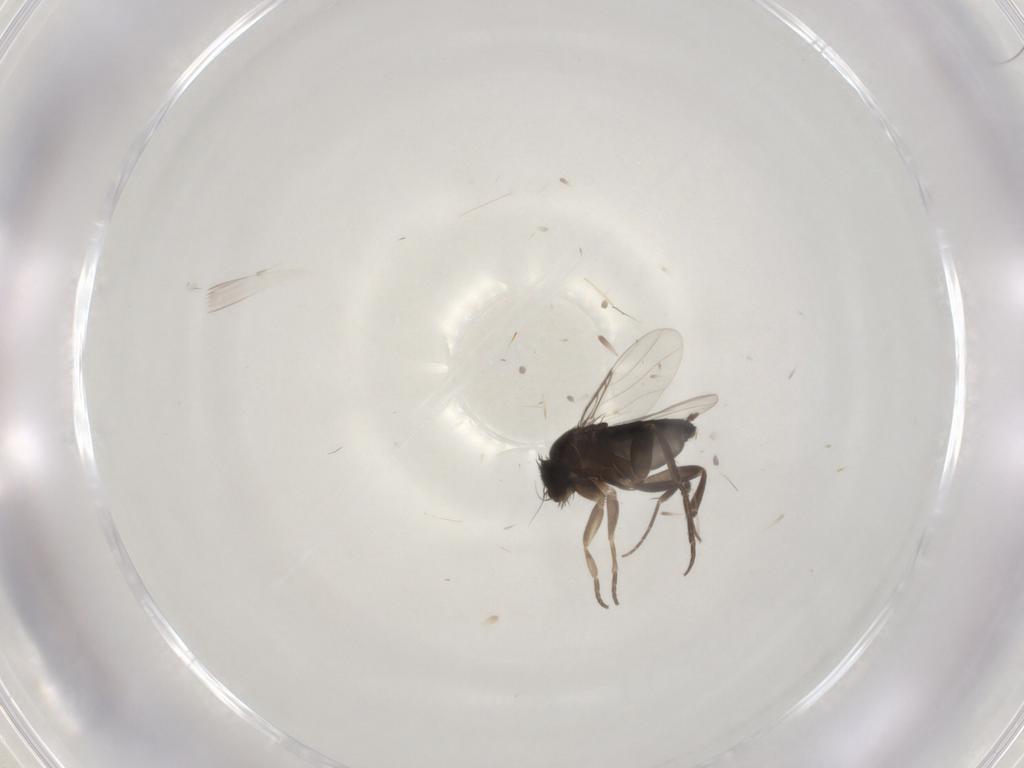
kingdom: Animalia
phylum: Arthropoda
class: Insecta
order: Diptera
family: Phoridae
